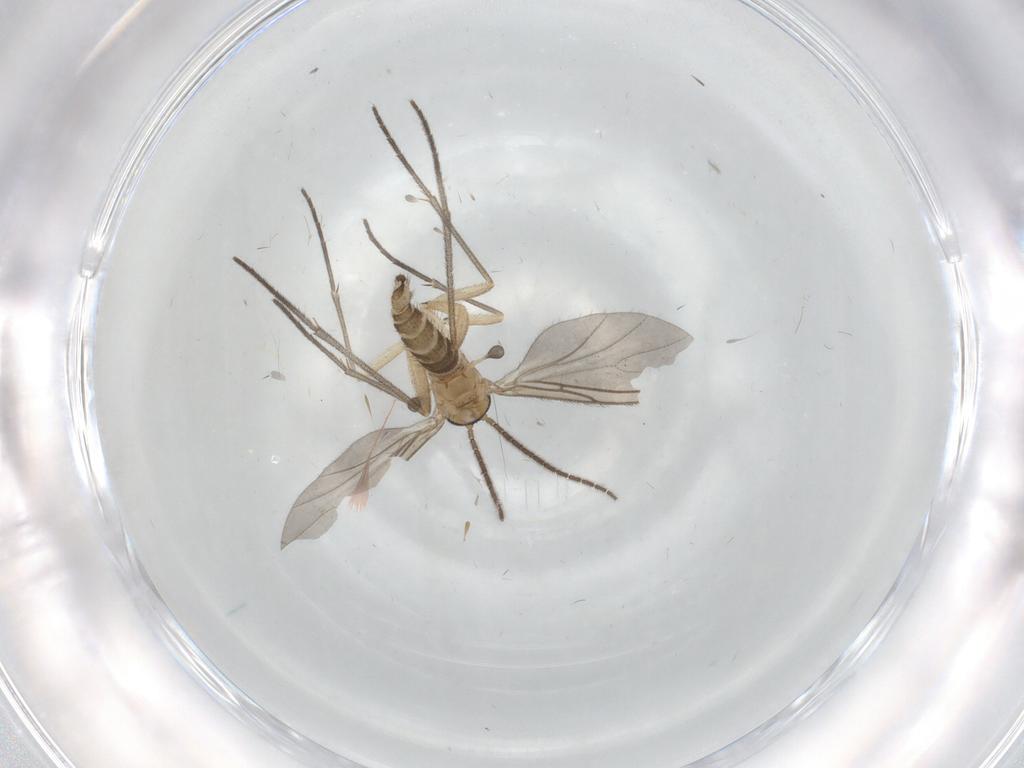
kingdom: Animalia
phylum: Arthropoda
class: Insecta
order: Diptera
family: Sciaridae
